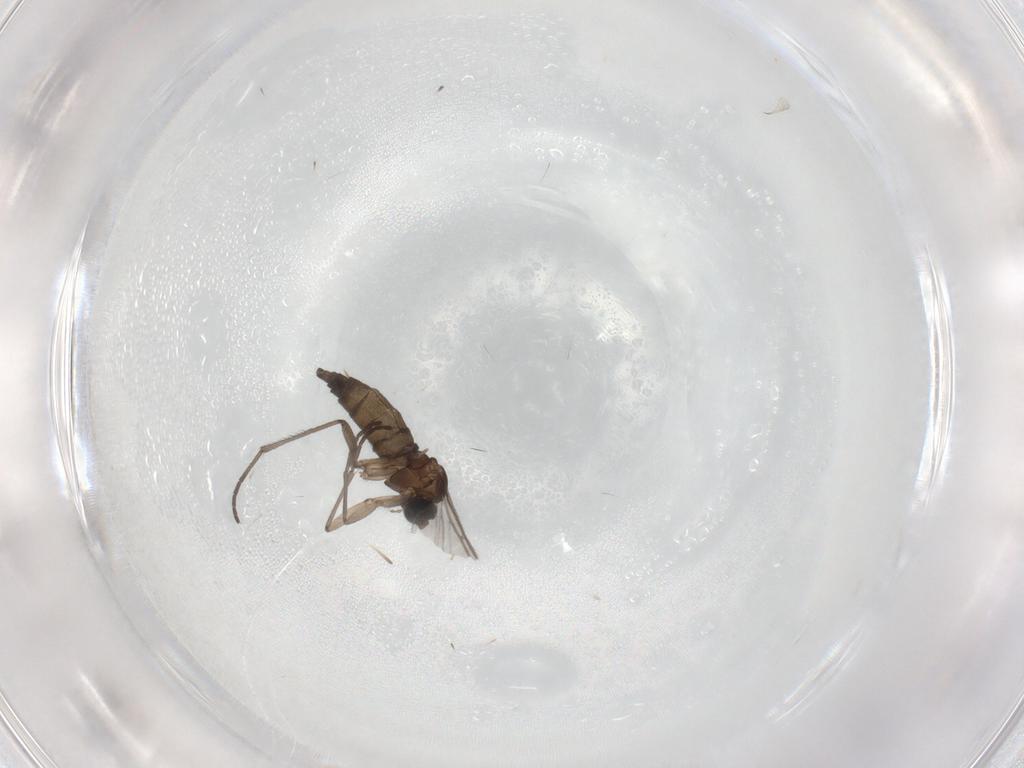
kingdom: Animalia
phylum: Arthropoda
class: Insecta
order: Diptera
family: Sciaridae
